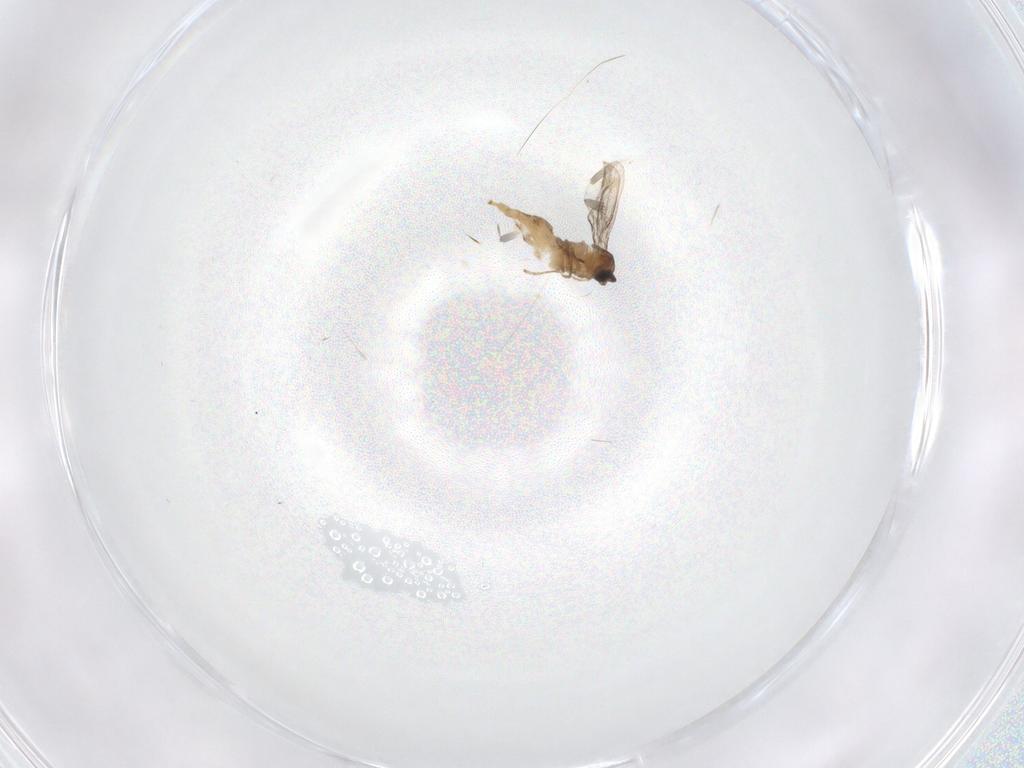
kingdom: Animalia
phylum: Arthropoda
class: Insecta
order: Diptera
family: Cecidomyiidae
